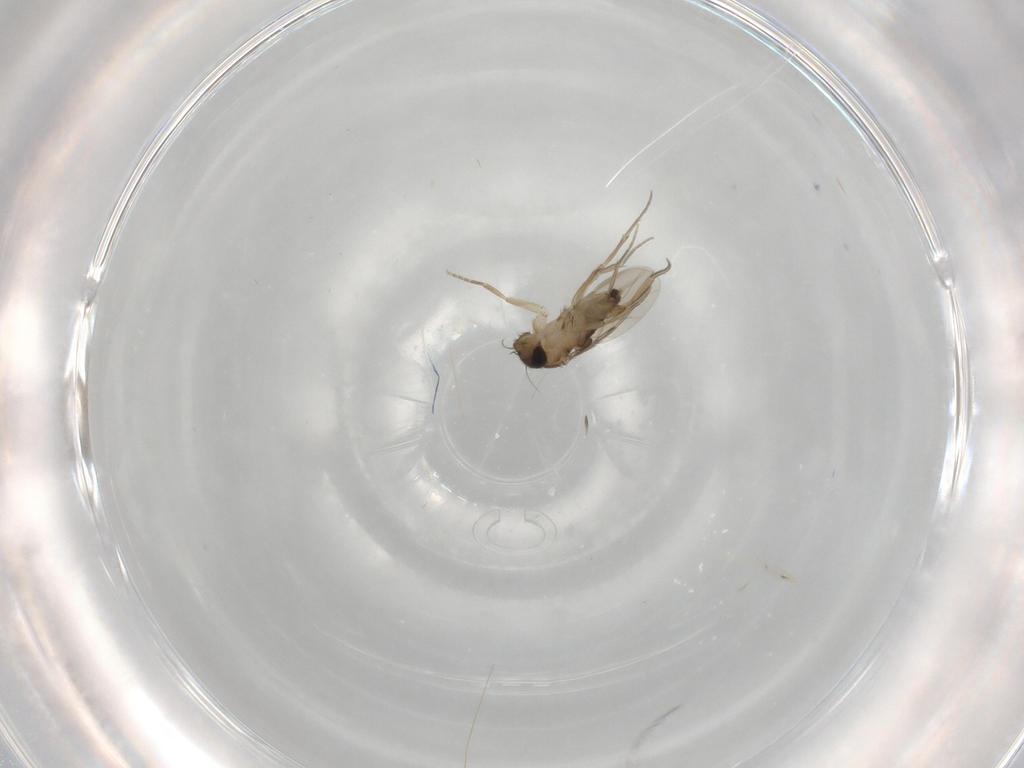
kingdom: Animalia
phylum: Arthropoda
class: Insecta
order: Diptera
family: Phoridae
